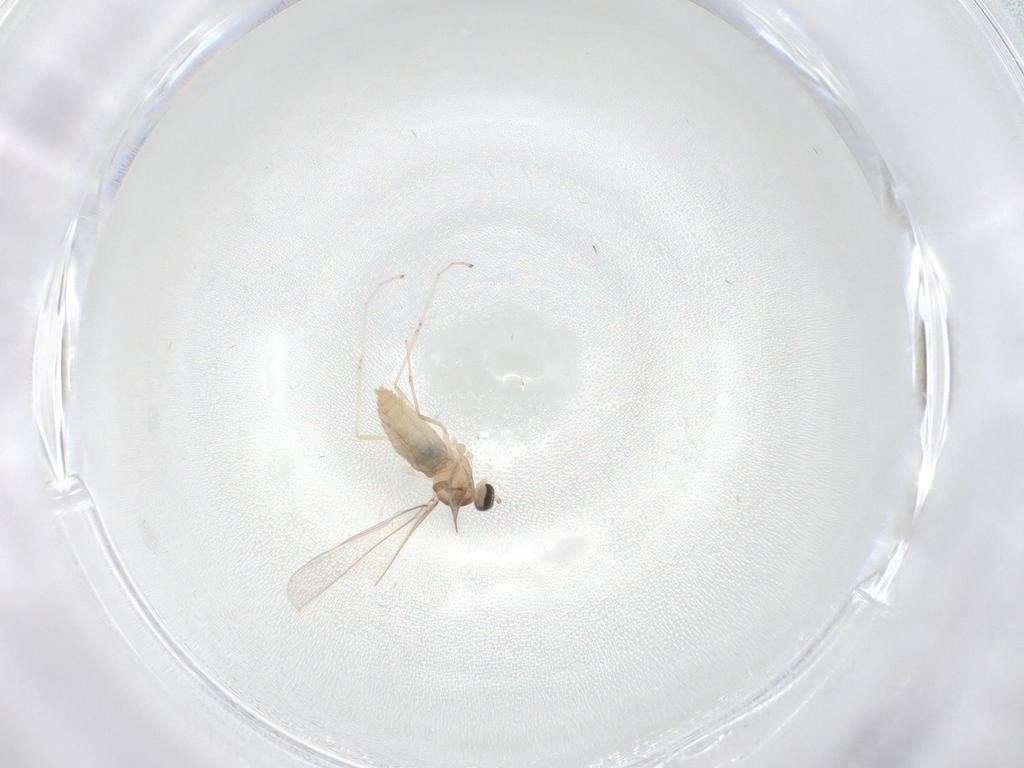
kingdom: Animalia
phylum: Arthropoda
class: Insecta
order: Diptera
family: Cecidomyiidae
